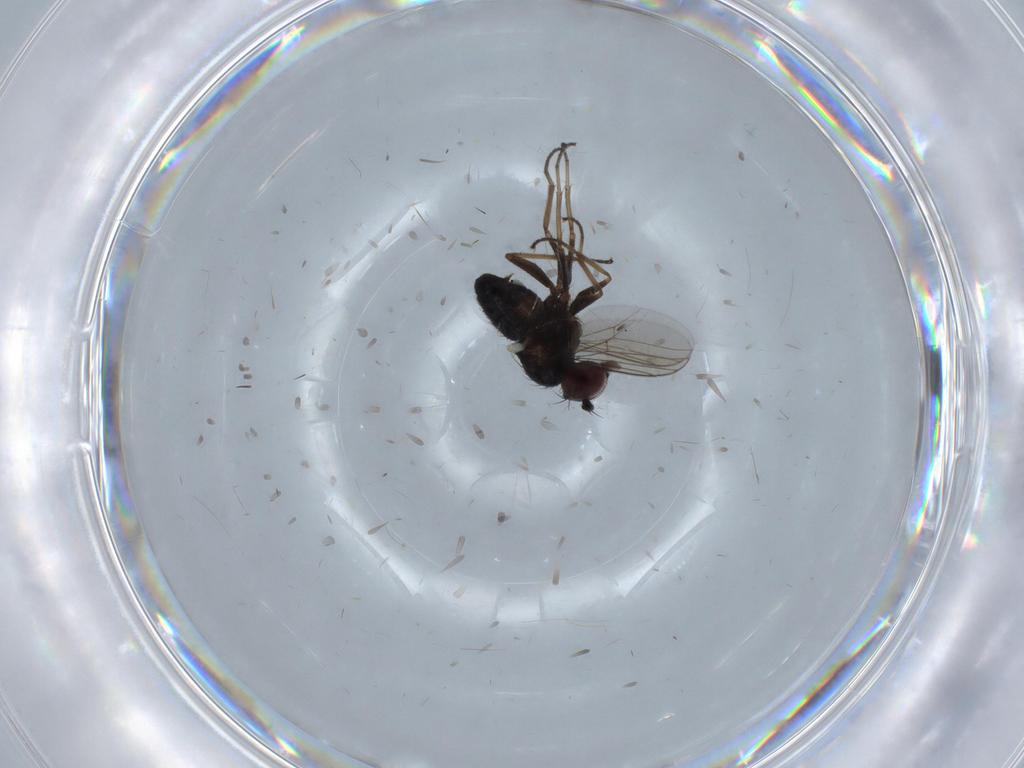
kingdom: Animalia
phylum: Arthropoda
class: Insecta
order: Diptera
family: Dolichopodidae
